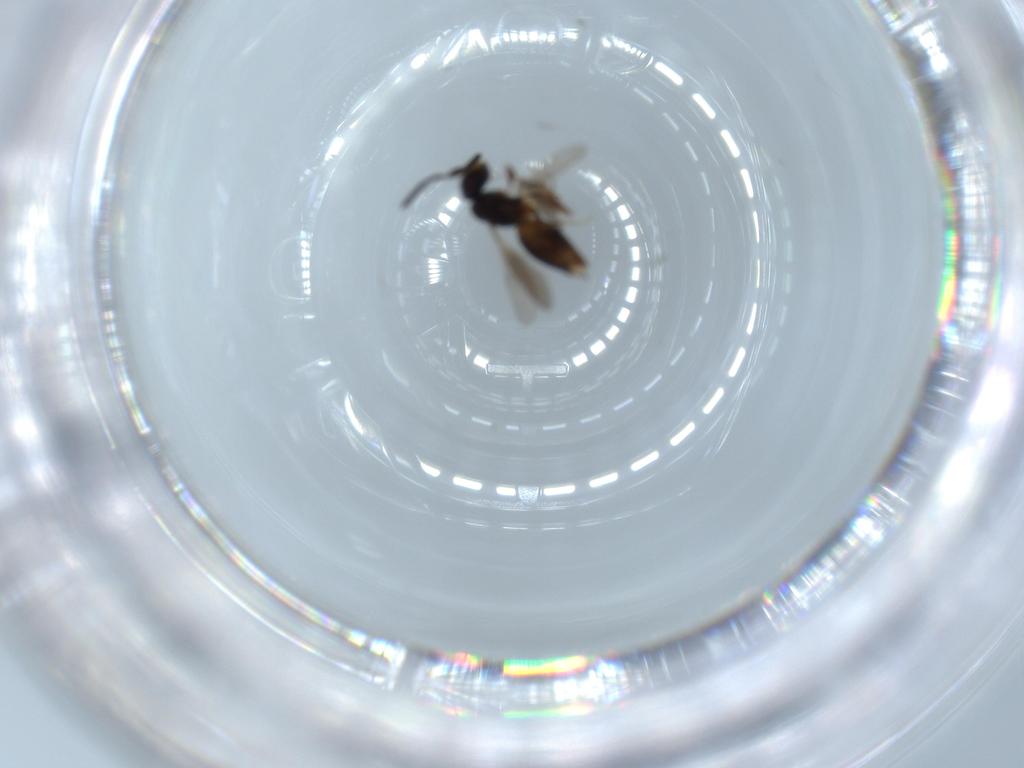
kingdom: Animalia
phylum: Arthropoda
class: Insecta
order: Hymenoptera
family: Ceraphronidae
